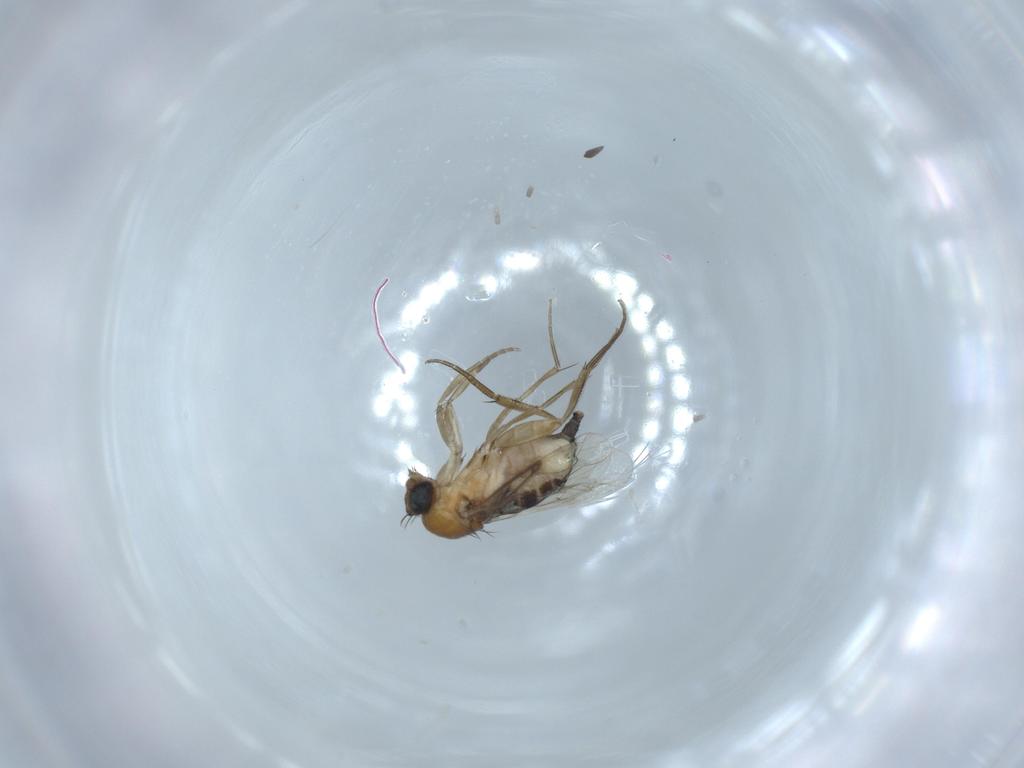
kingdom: Animalia
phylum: Arthropoda
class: Insecta
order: Diptera
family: Phoridae
